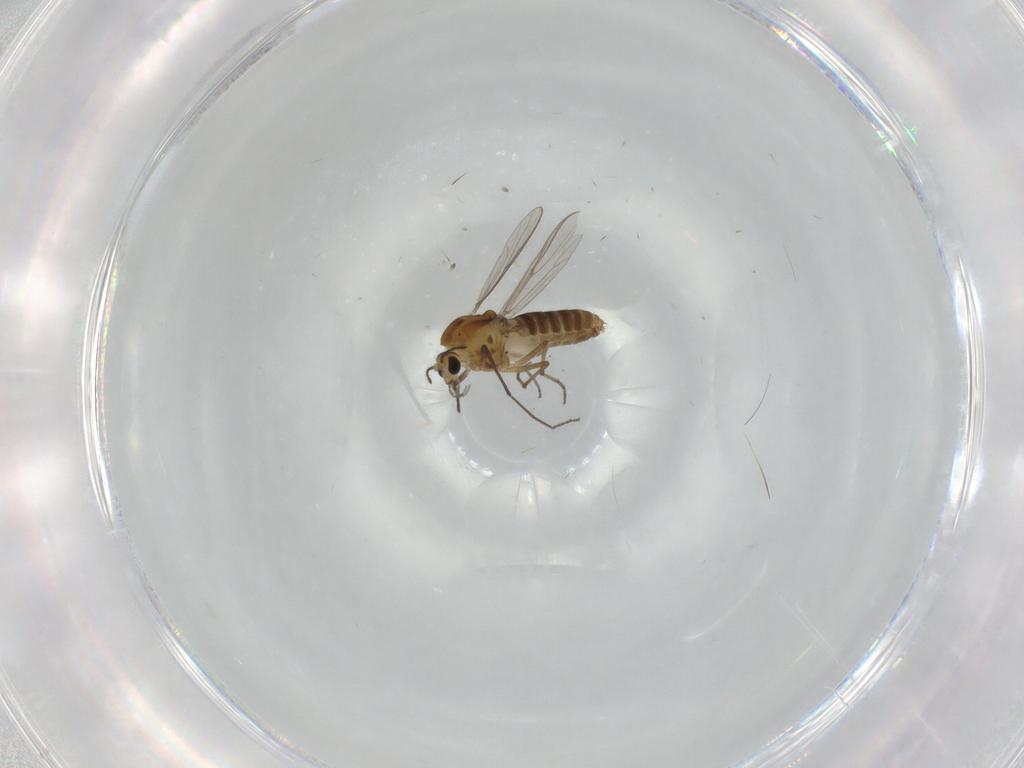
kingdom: Animalia
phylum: Arthropoda
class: Insecta
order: Diptera
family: Chironomidae
